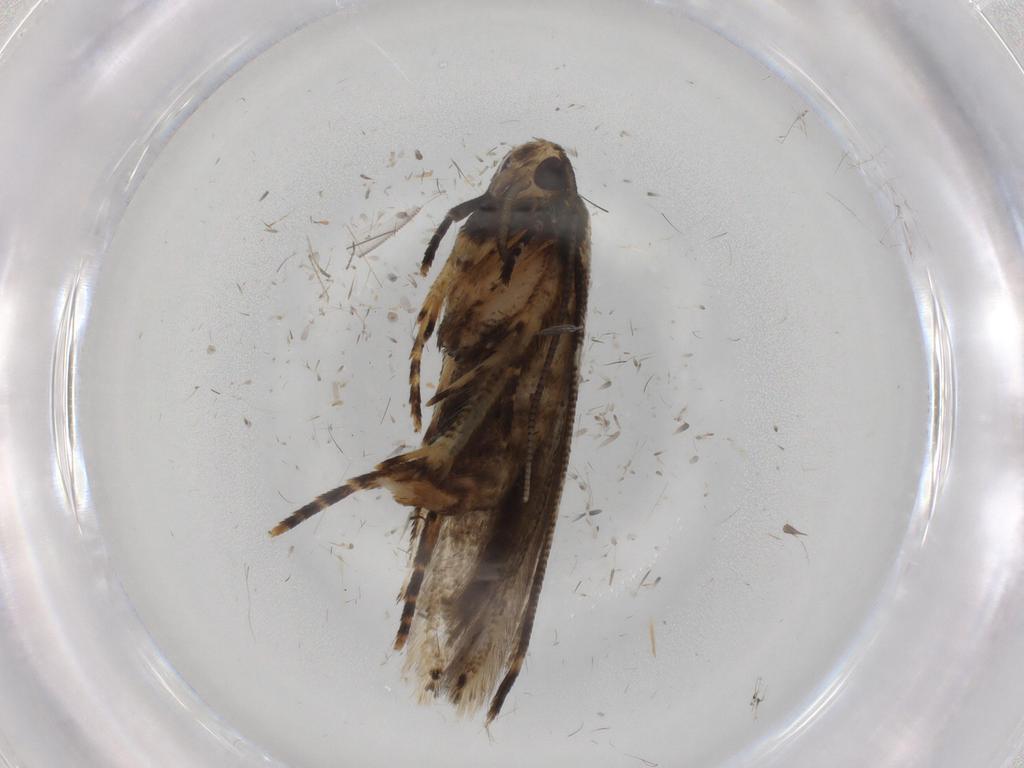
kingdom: Animalia
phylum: Arthropoda
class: Insecta
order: Lepidoptera
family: Cosmopterigidae
